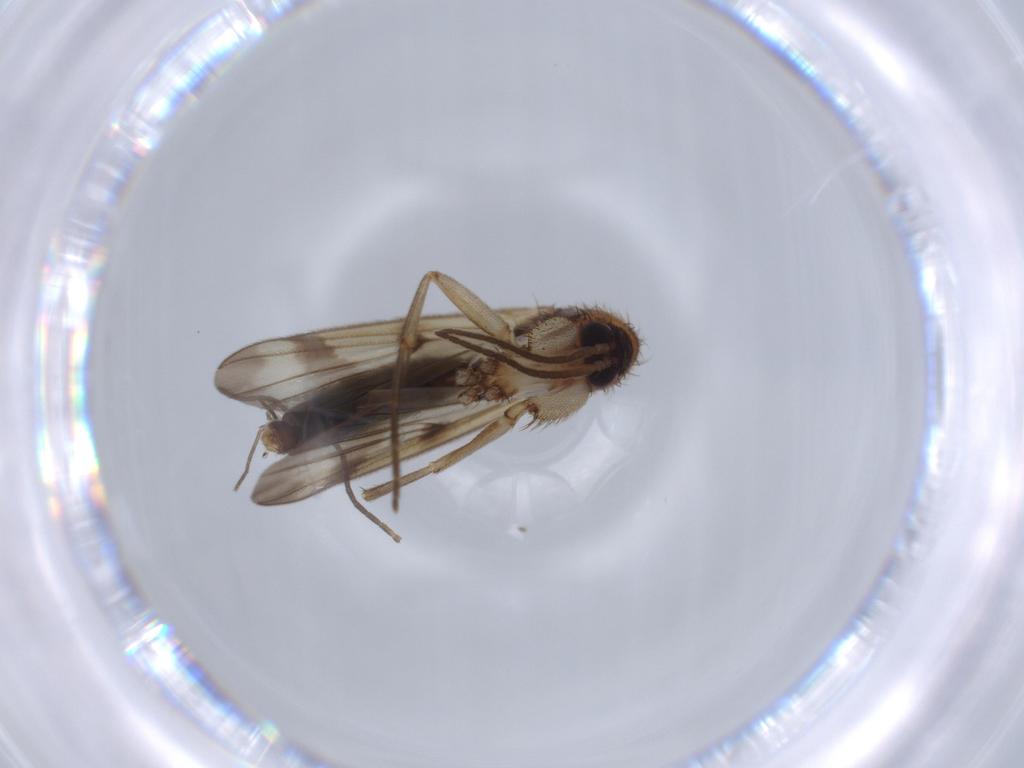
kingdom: Animalia
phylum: Arthropoda
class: Insecta
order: Diptera
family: Mycetophilidae
